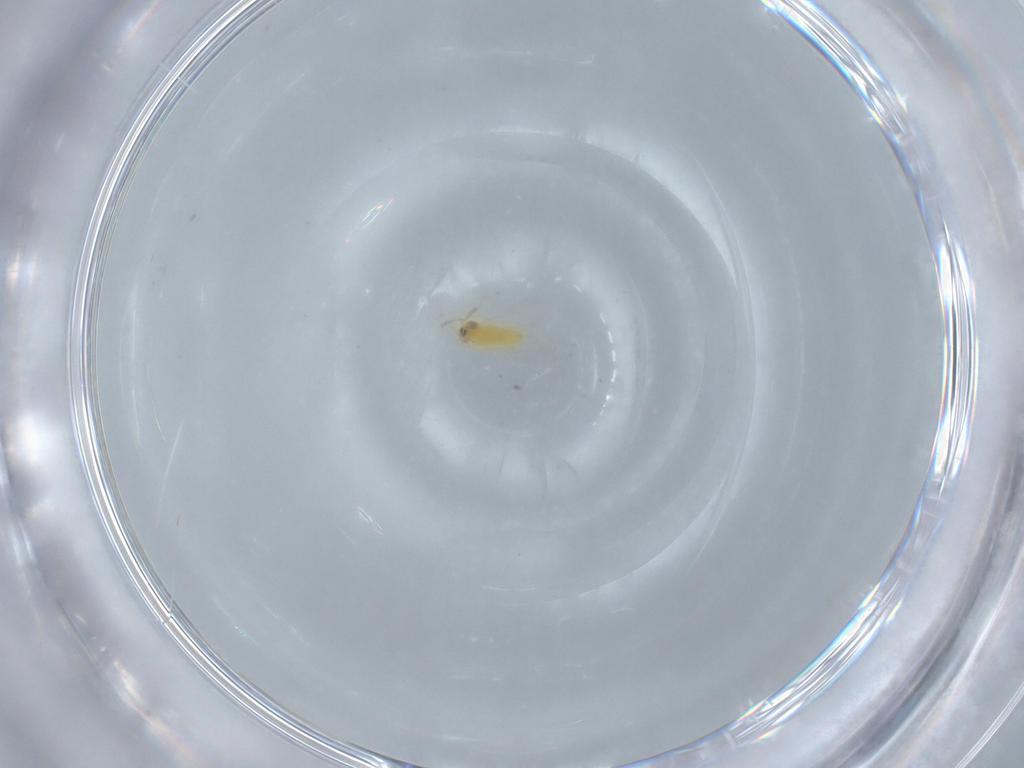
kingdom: Animalia
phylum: Arthropoda
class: Insecta
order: Hymenoptera
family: Aphelinidae
